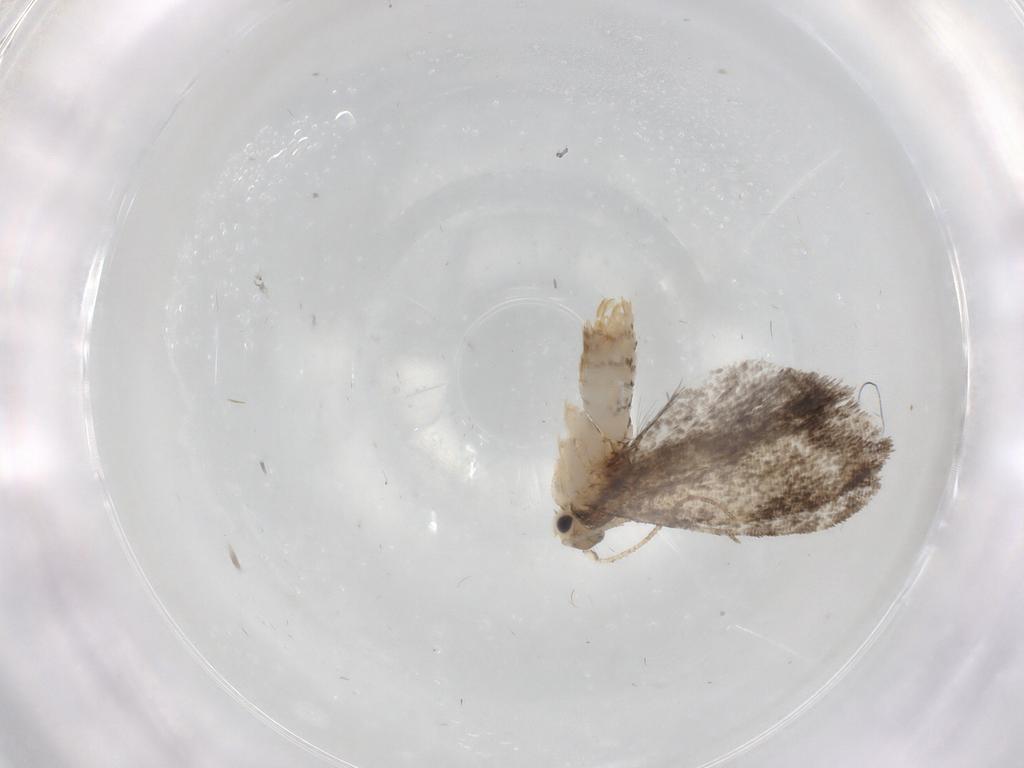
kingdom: Animalia
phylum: Arthropoda
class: Insecta
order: Lepidoptera
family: Tineidae
